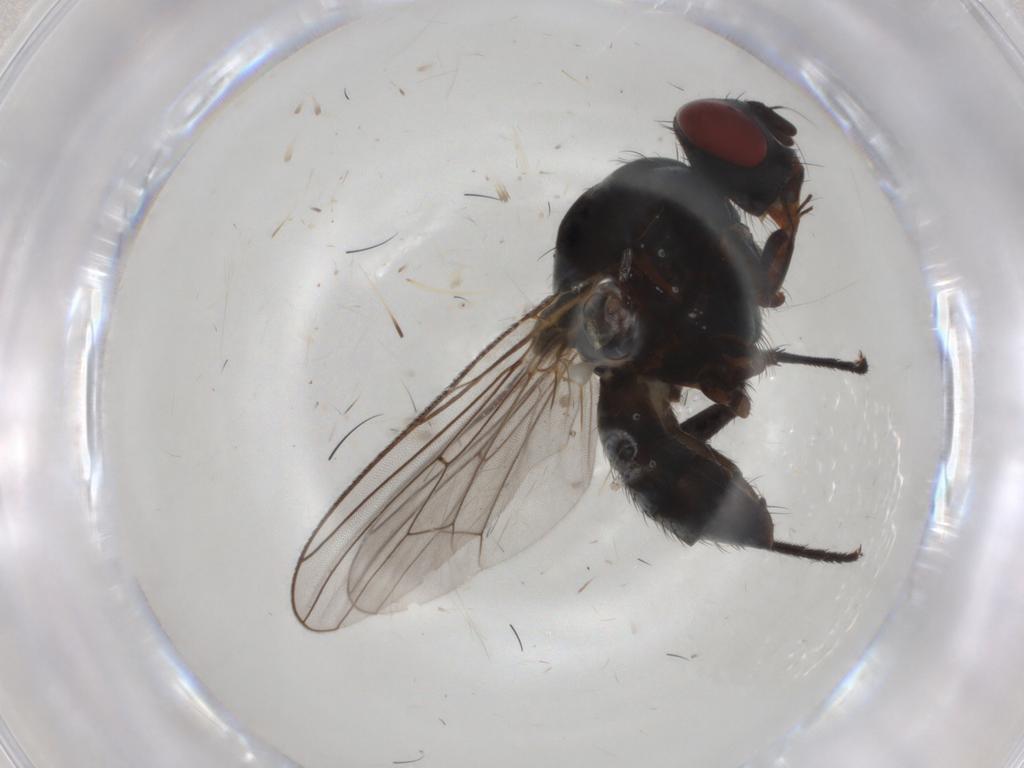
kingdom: Animalia
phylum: Arthropoda
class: Insecta
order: Diptera
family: Anthomyiidae
